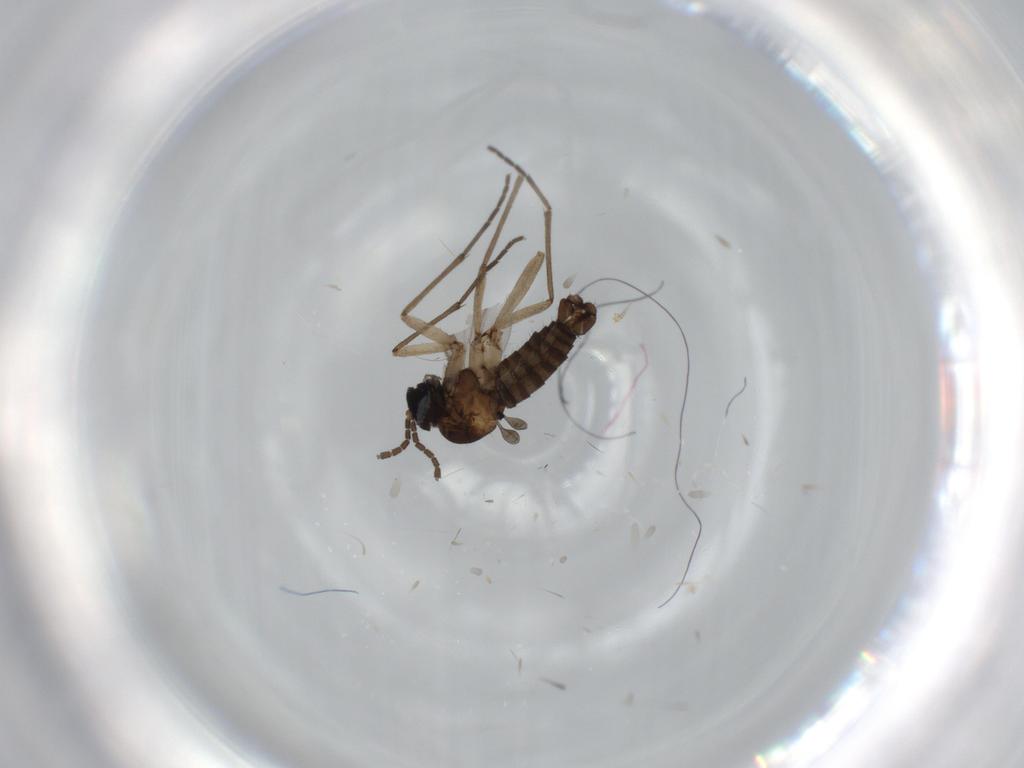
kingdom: Animalia
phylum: Arthropoda
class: Insecta
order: Diptera
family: Sciaridae
